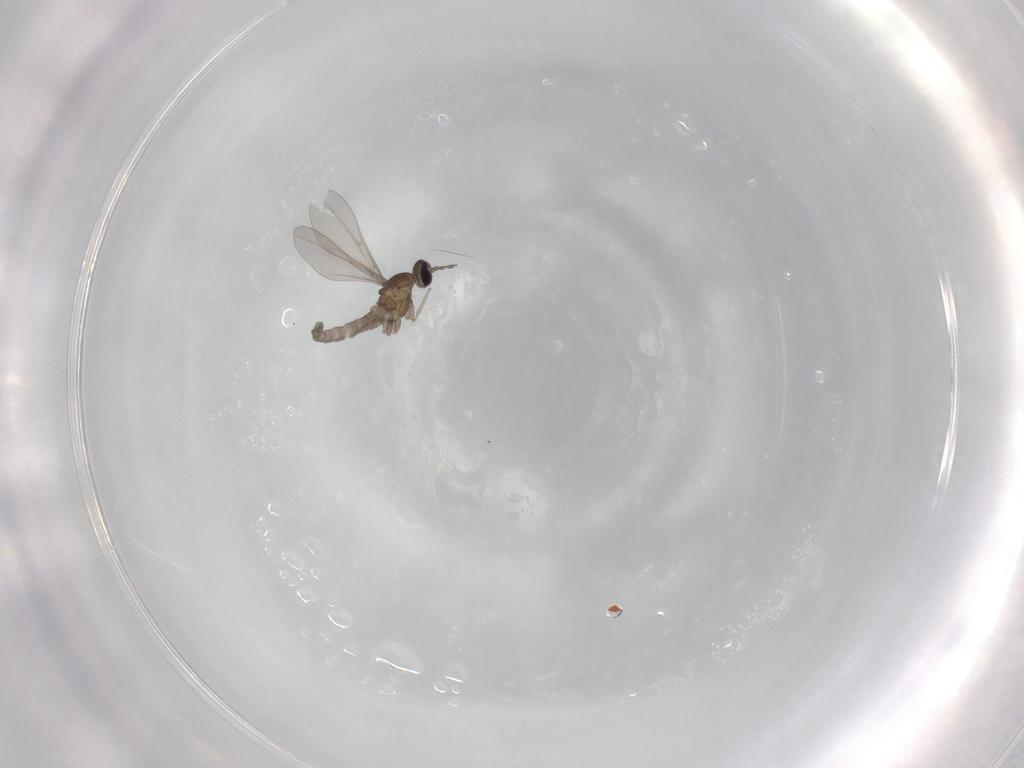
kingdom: Animalia
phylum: Arthropoda
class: Insecta
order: Diptera
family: Cecidomyiidae
